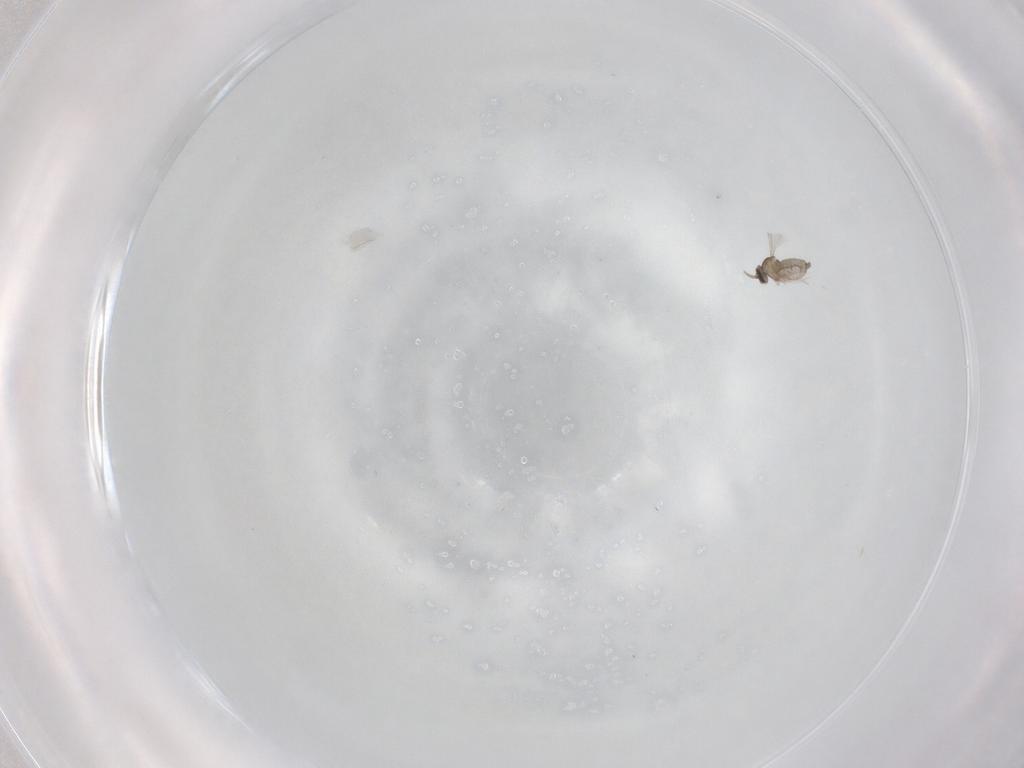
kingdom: Animalia
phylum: Arthropoda
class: Insecta
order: Diptera
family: Cecidomyiidae
